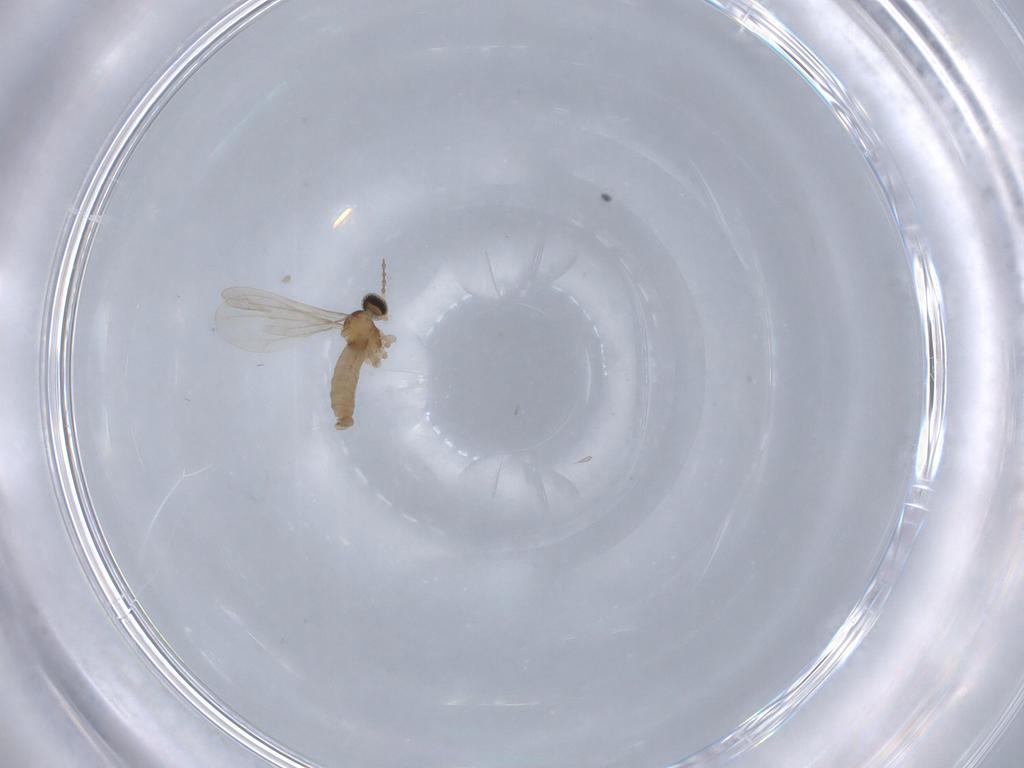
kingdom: Animalia
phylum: Arthropoda
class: Insecta
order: Diptera
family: Cecidomyiidae
